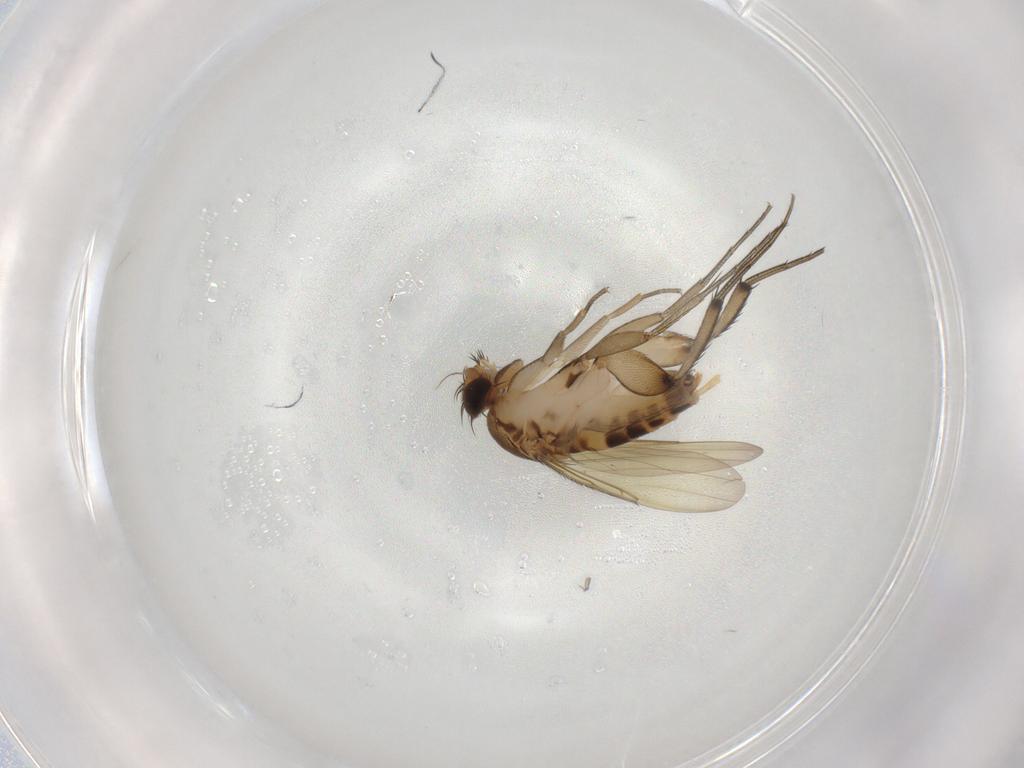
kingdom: Animalia
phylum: Arthropoda
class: Insecta
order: Diptera
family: Phoridae
